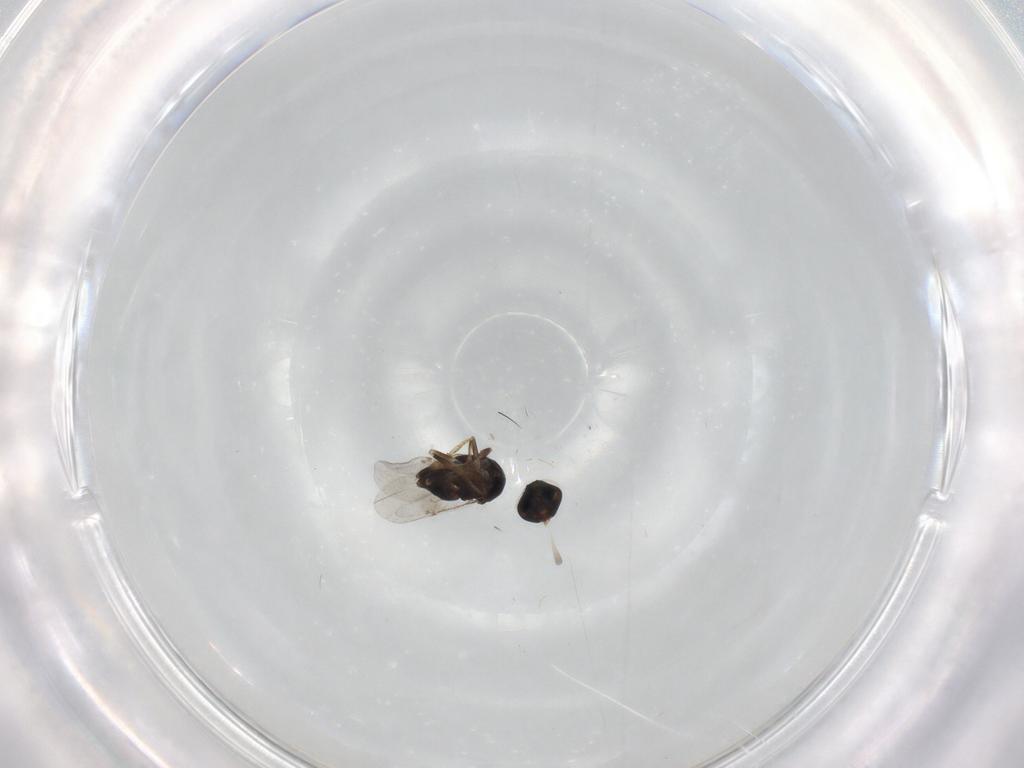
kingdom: Animalia
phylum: Arthropoda
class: Insecta
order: Hymenoptera
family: Encyrtidae
